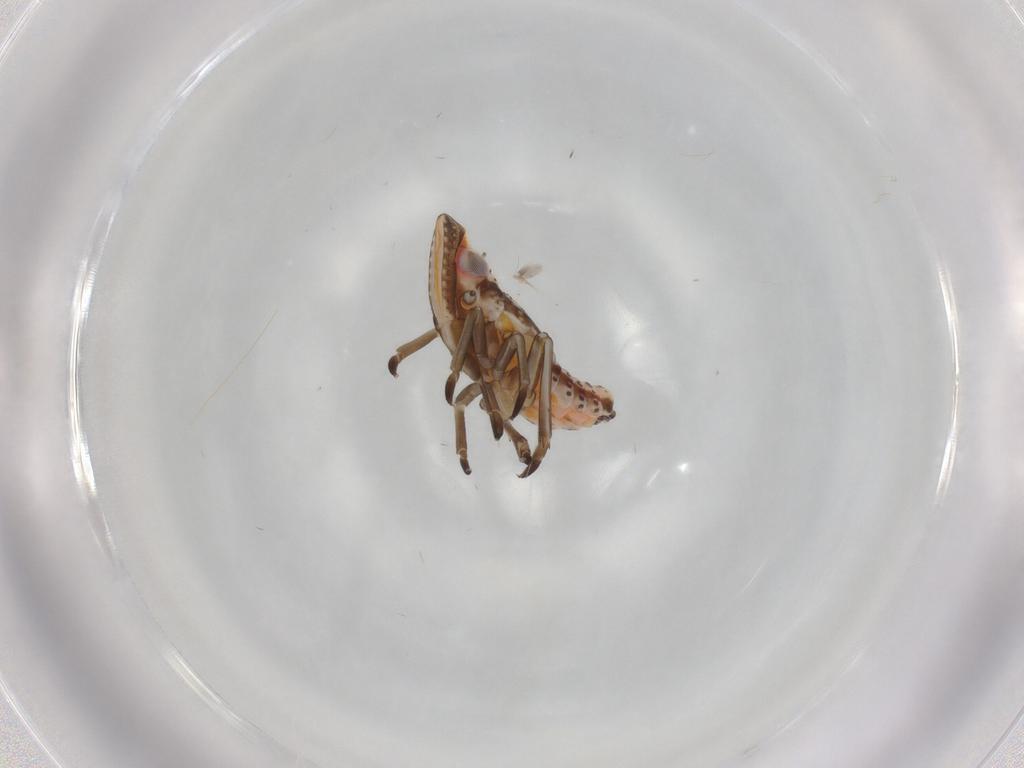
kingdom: Animalia
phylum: Arthropoda
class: Insecta
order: Hemiptera
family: Tropiduchidae
